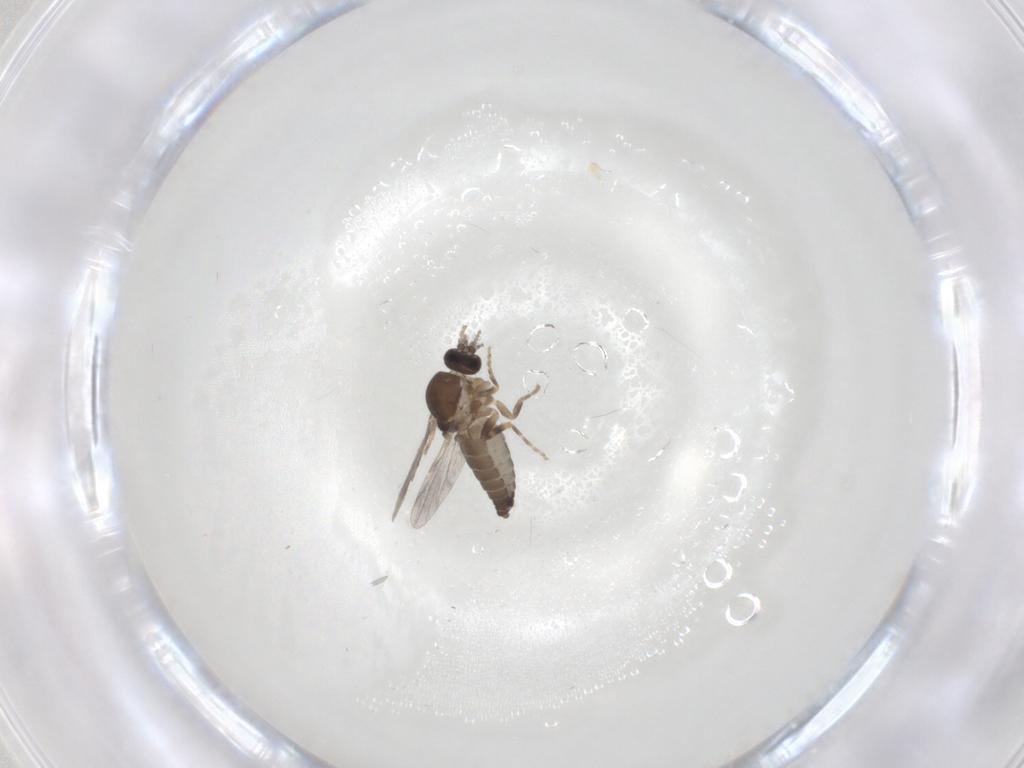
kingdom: Animalia
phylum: Arthropoda
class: Insecta
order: Diptera
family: Ceratopogonidae
